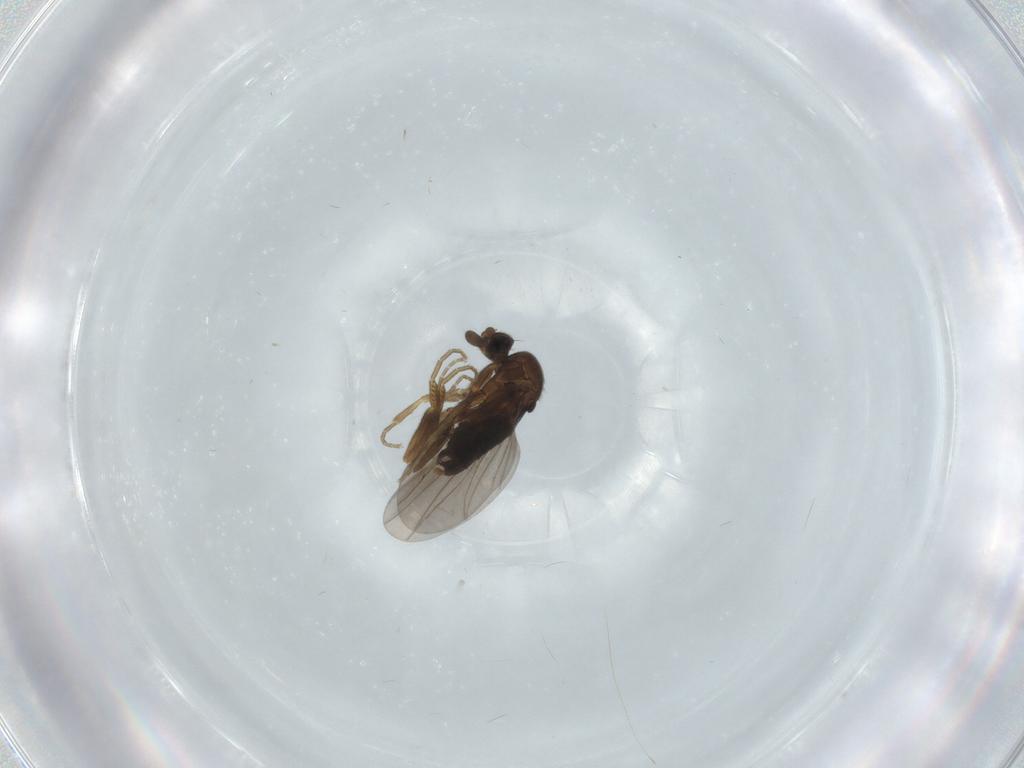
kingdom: Animalia
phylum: Arthropoda
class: Insecta
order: Diptera
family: Phoridae
